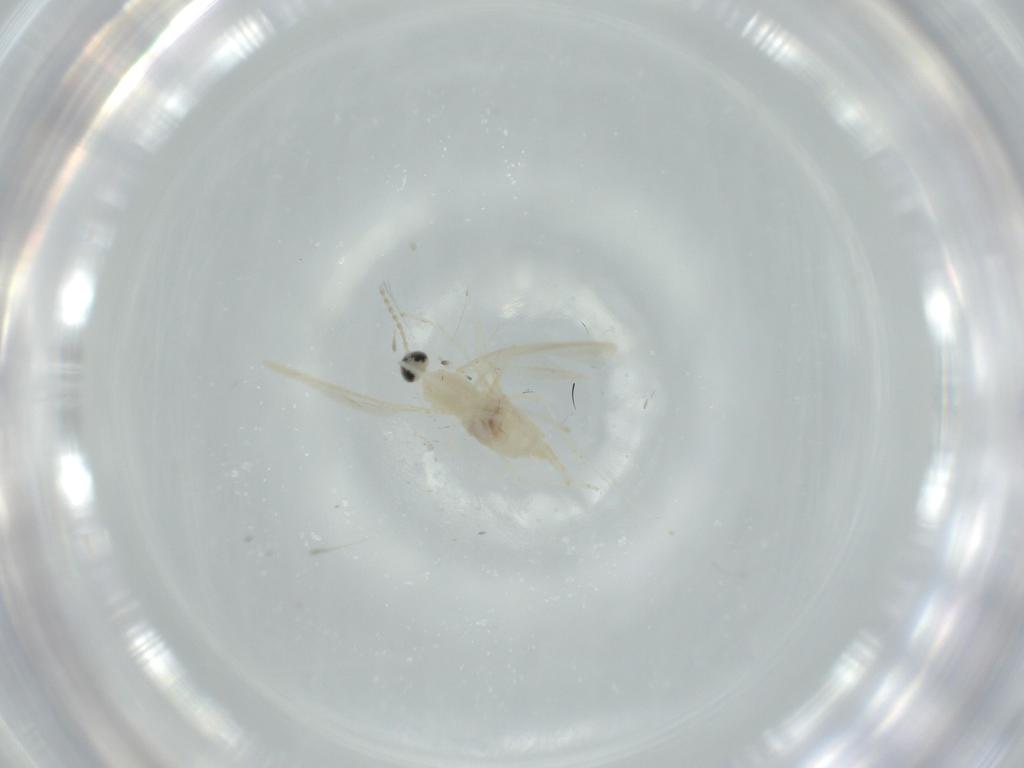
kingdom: Animalia
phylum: Arthropoda
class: Insecta
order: Diptera
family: Cecidomyiidae
